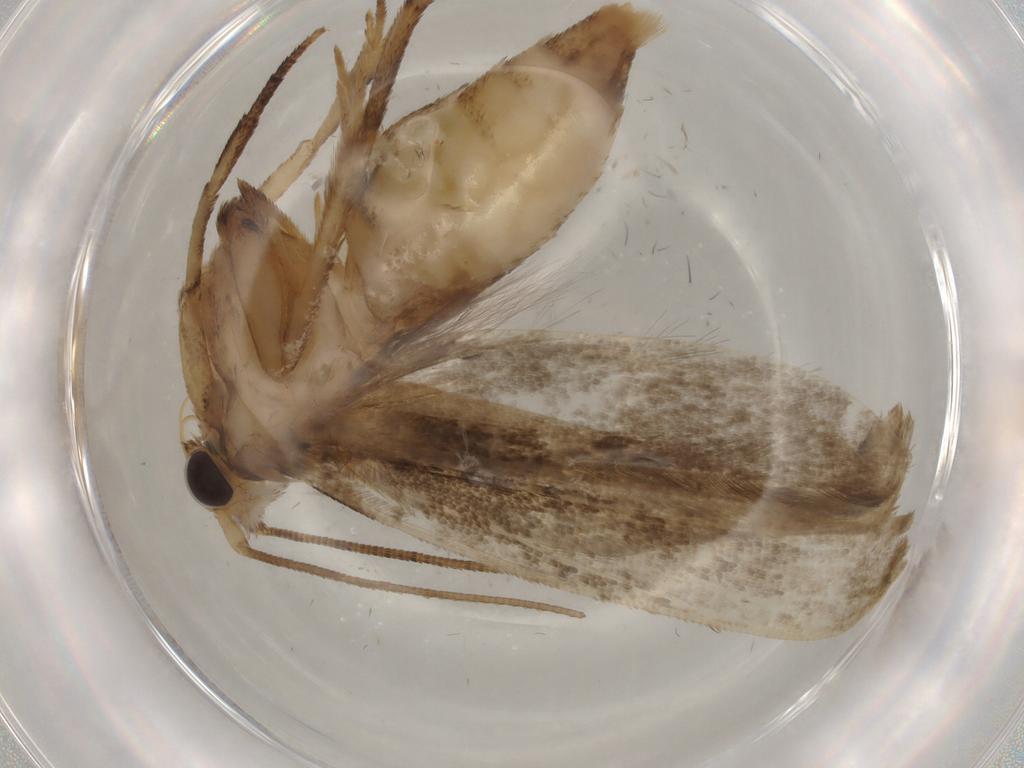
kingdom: Animalia
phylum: Arthropoda
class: Insecta
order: Lepidoptera
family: Yponomeutidae
